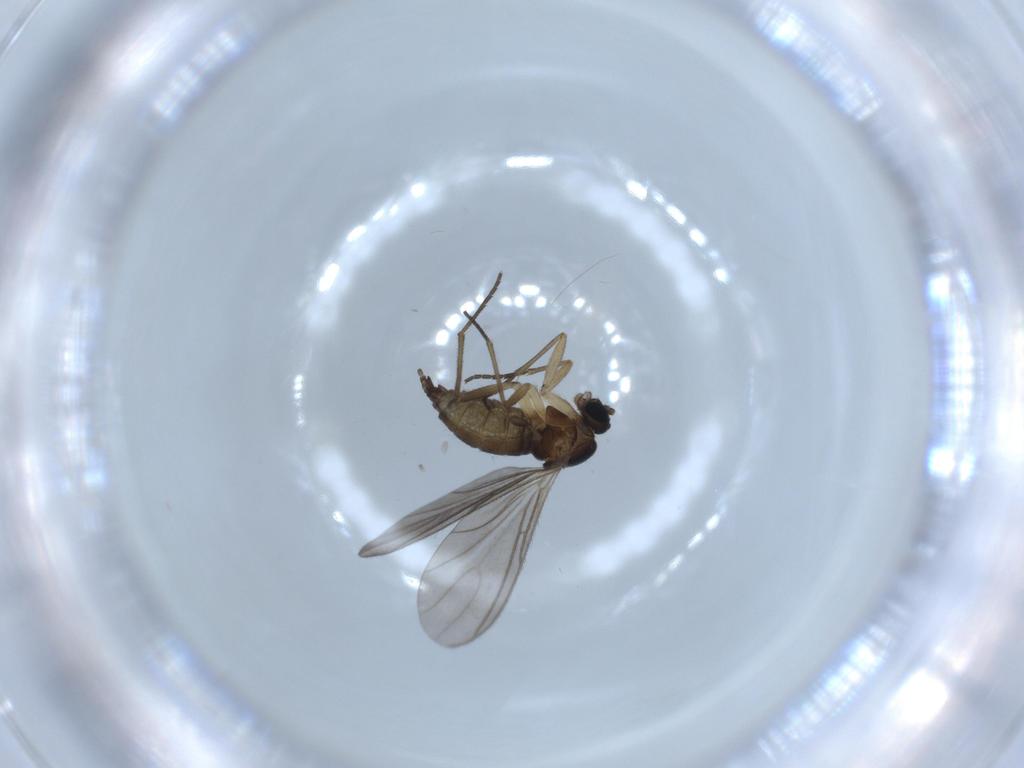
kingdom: Animalia
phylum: Arthropoda
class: Insecta
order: Diptera
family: Sciaridae
